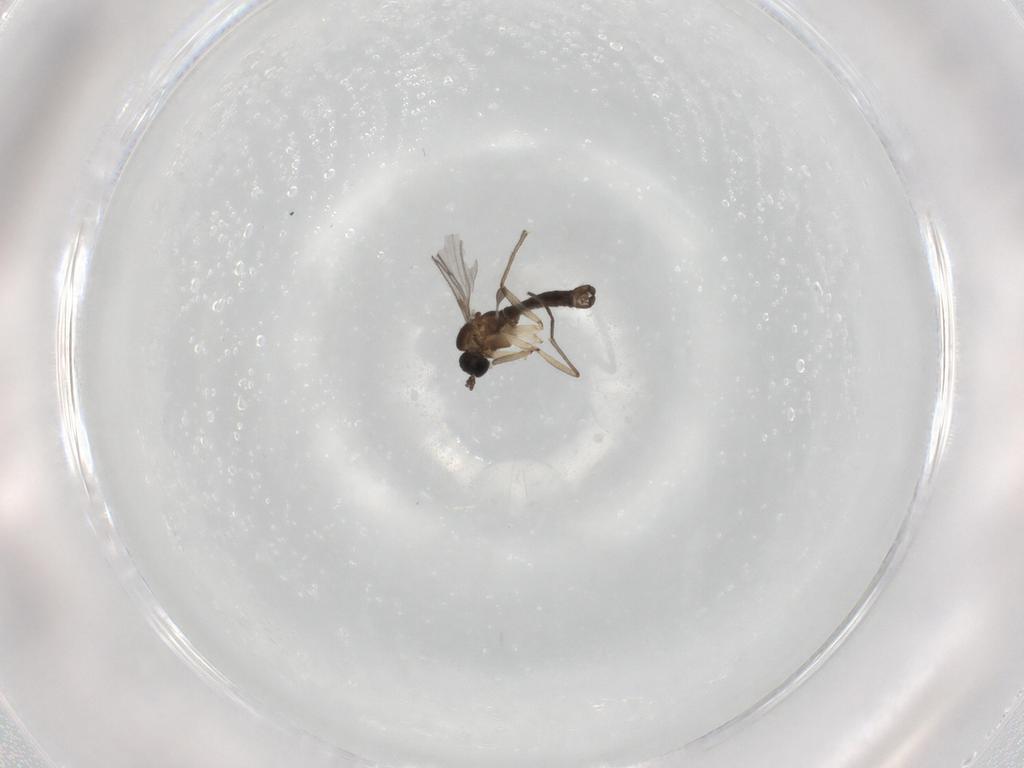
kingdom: Animalia
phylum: Arthropoda
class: Insecta
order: Diptera
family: Sciaridae
